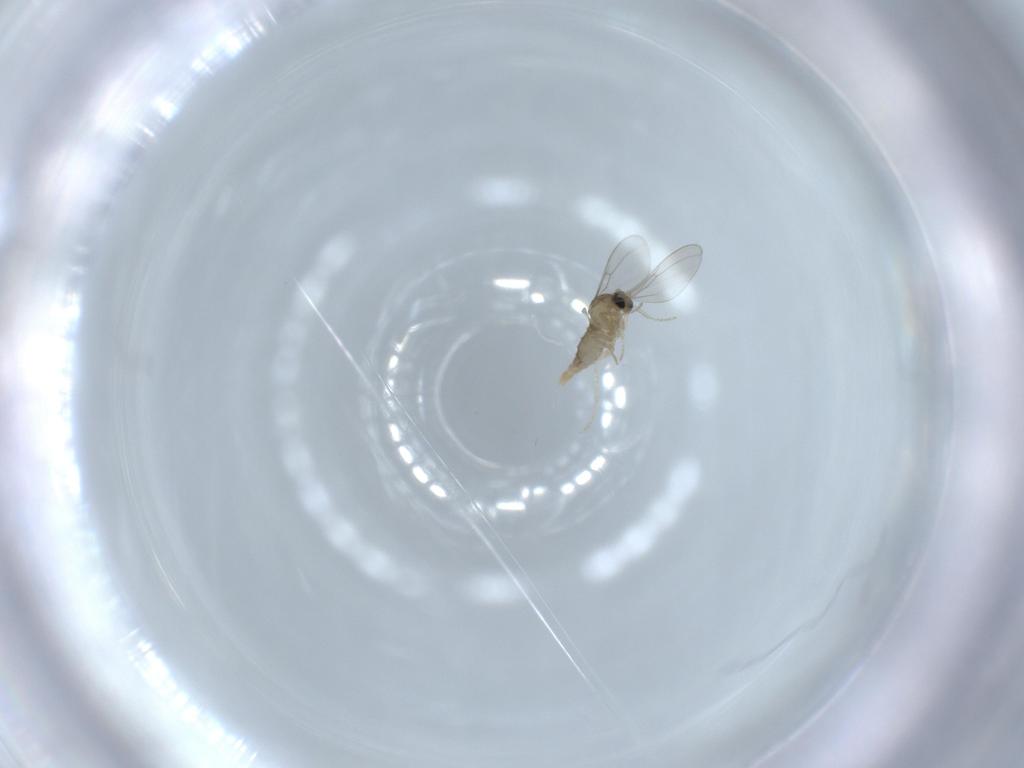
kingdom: Animalia
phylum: Arthropoda
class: Insecta
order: Diptera
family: Cecidomyiidae
